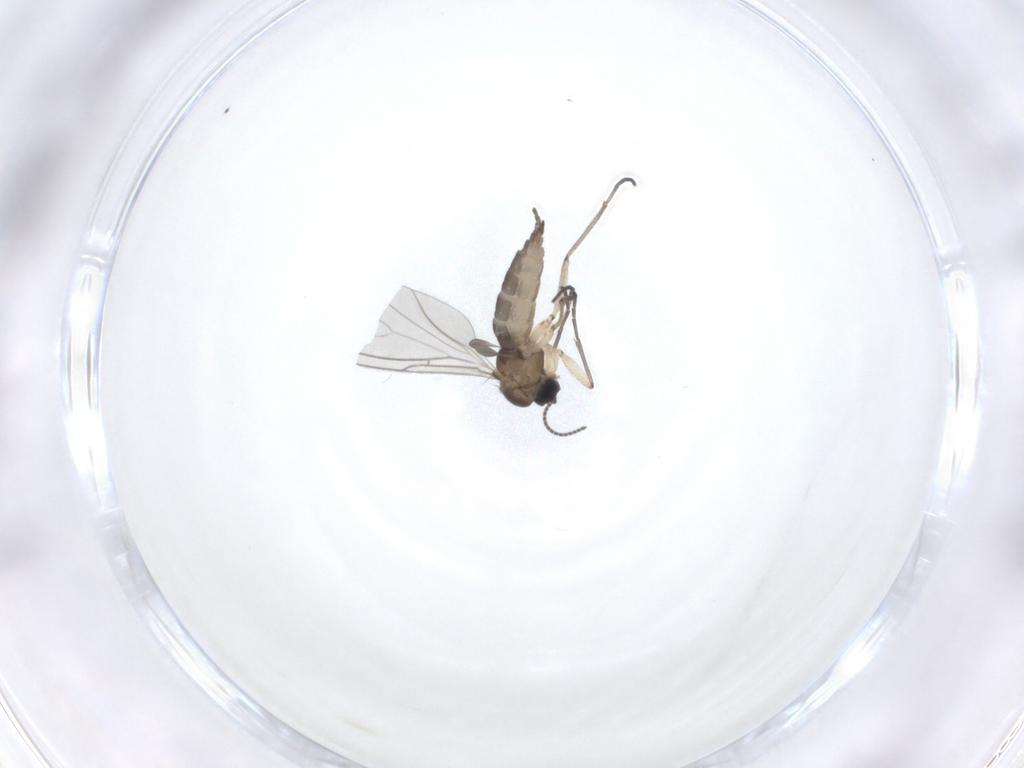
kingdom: Animalia
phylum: Arthropoda
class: Insecta
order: Diptera
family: Sciaridae
